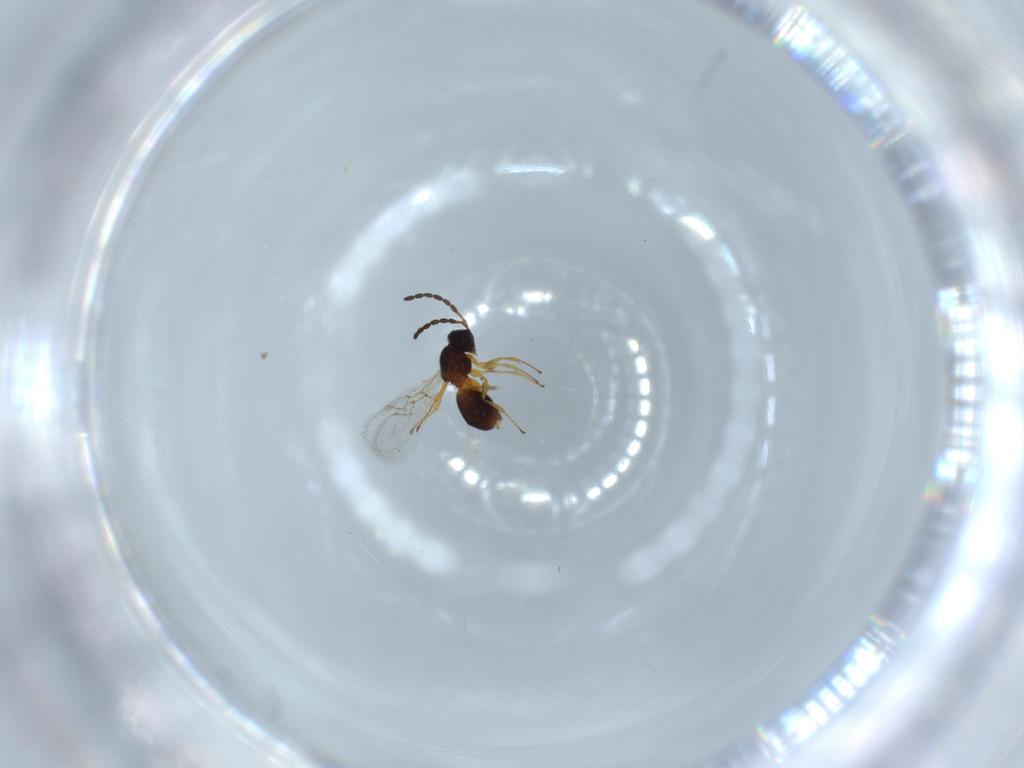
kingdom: Animalia
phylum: Arthropoda
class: Insecta
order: Hymenoptera
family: Figitidae
